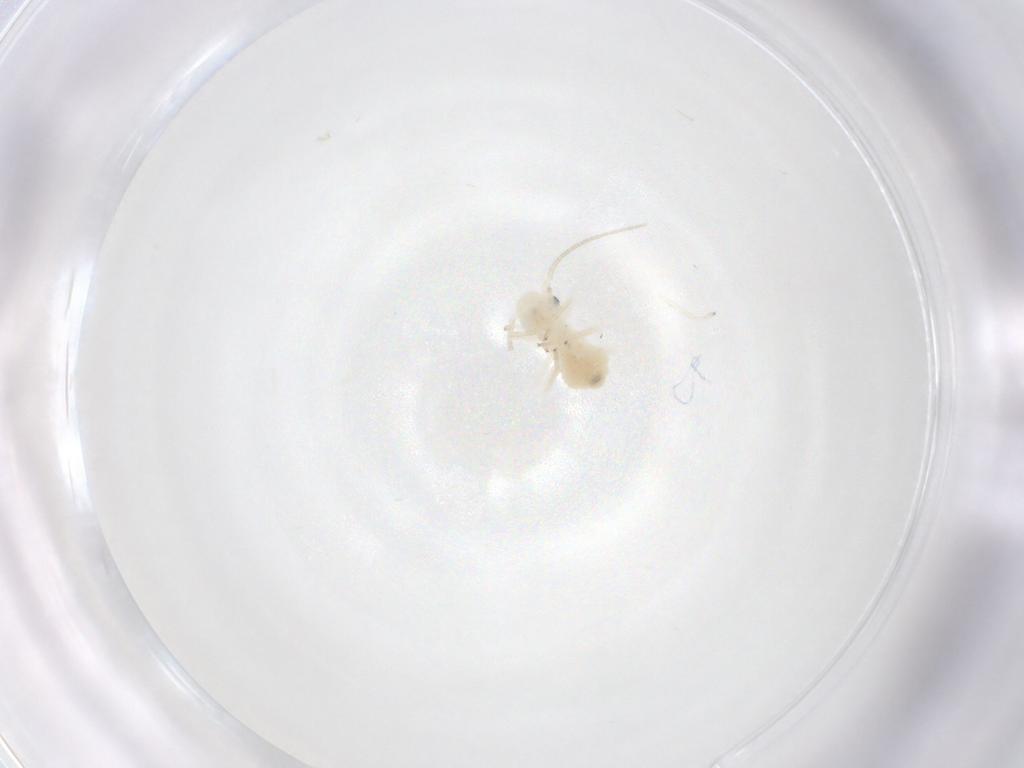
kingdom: Animalia
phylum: Arthropoda
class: Insecta
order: Psocodea
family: Caeciliusidae
